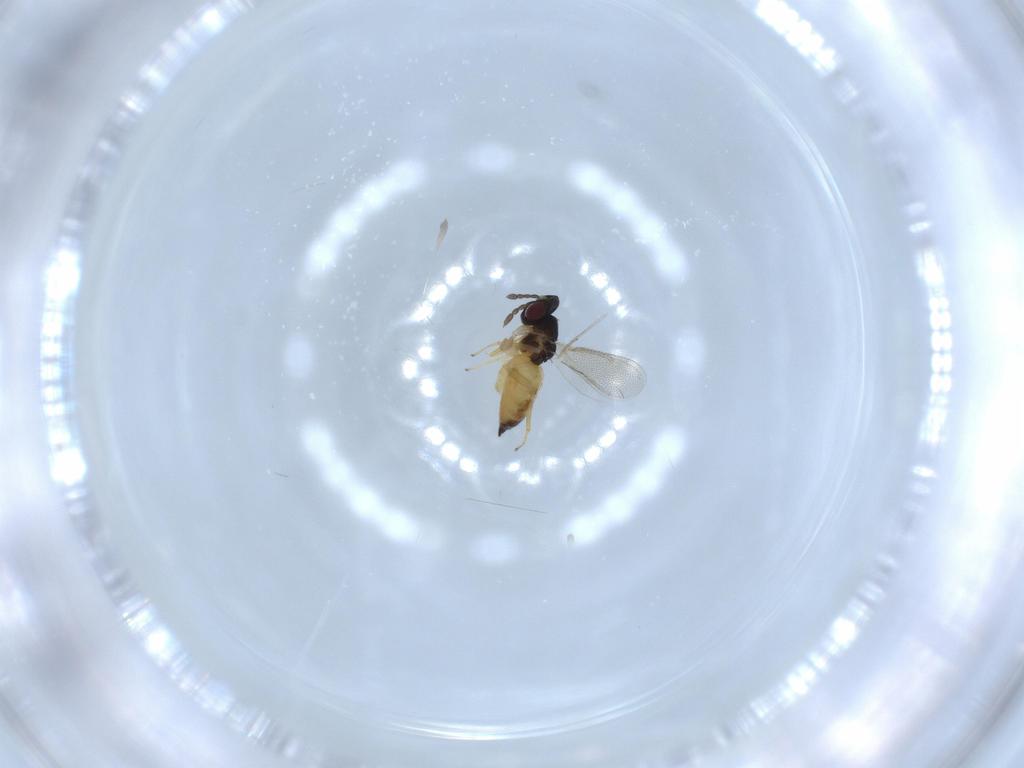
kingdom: Animalia
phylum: Arthropoda
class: Insecta
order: Hymenoptera
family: Eulophidae
